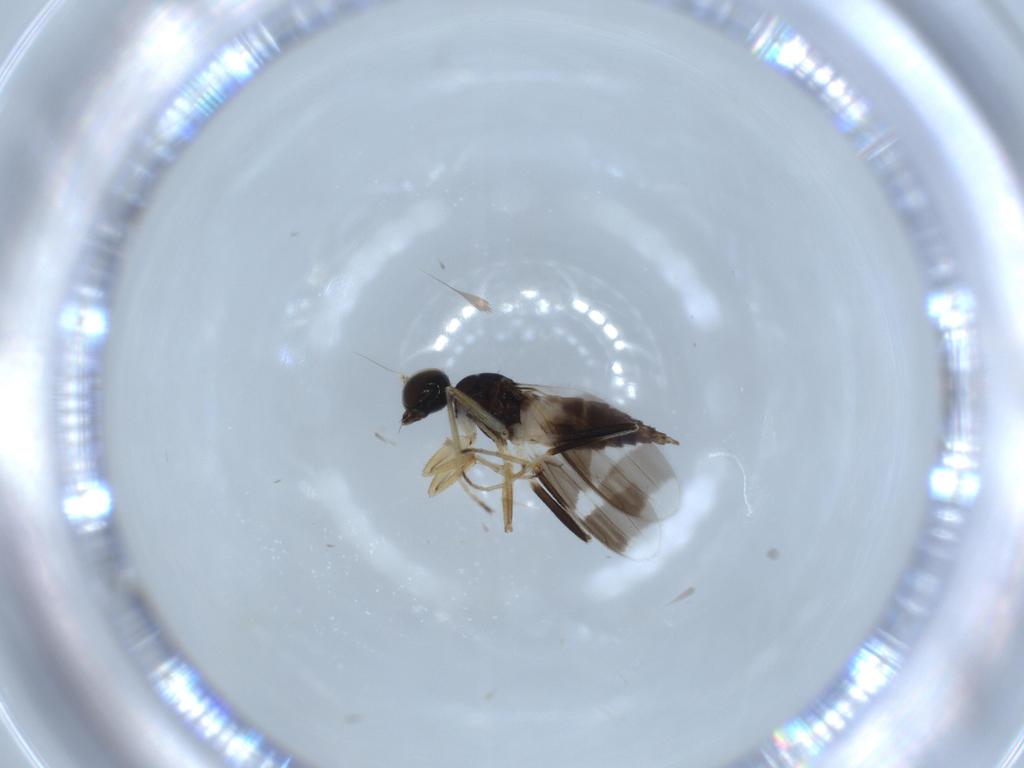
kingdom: Animalia
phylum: Arthropoda
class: Insecta
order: Diptera
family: Hybotidae
